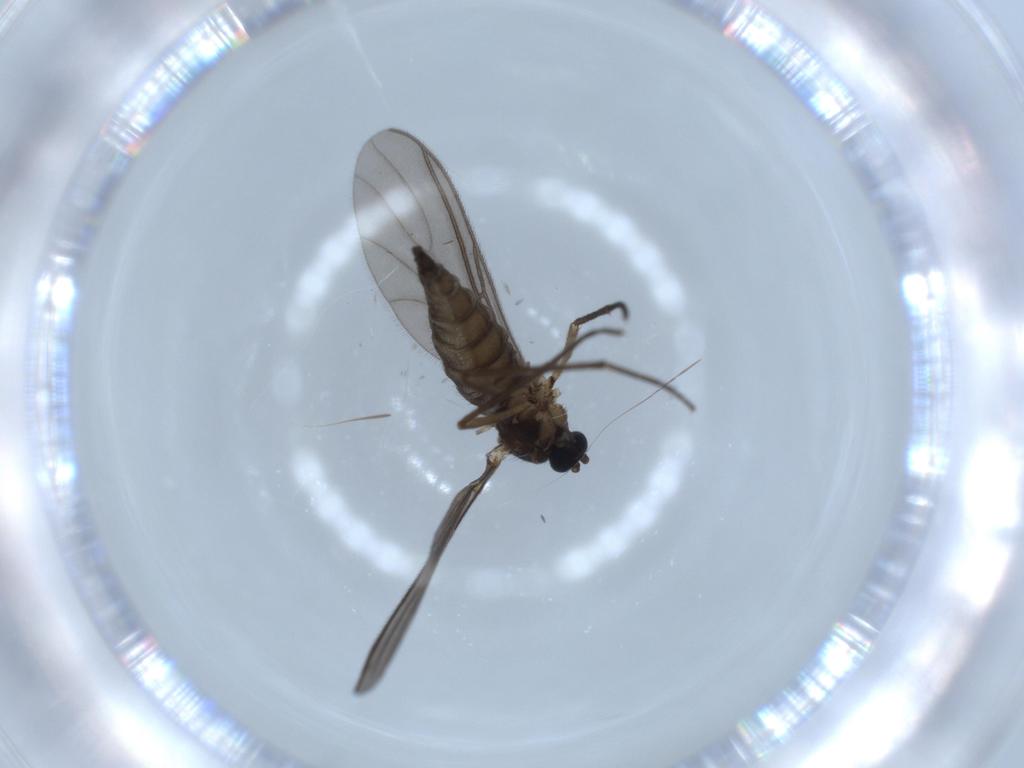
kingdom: Animalia
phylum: Arthropoda
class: Insecta
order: Diptera
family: Sciaridae
